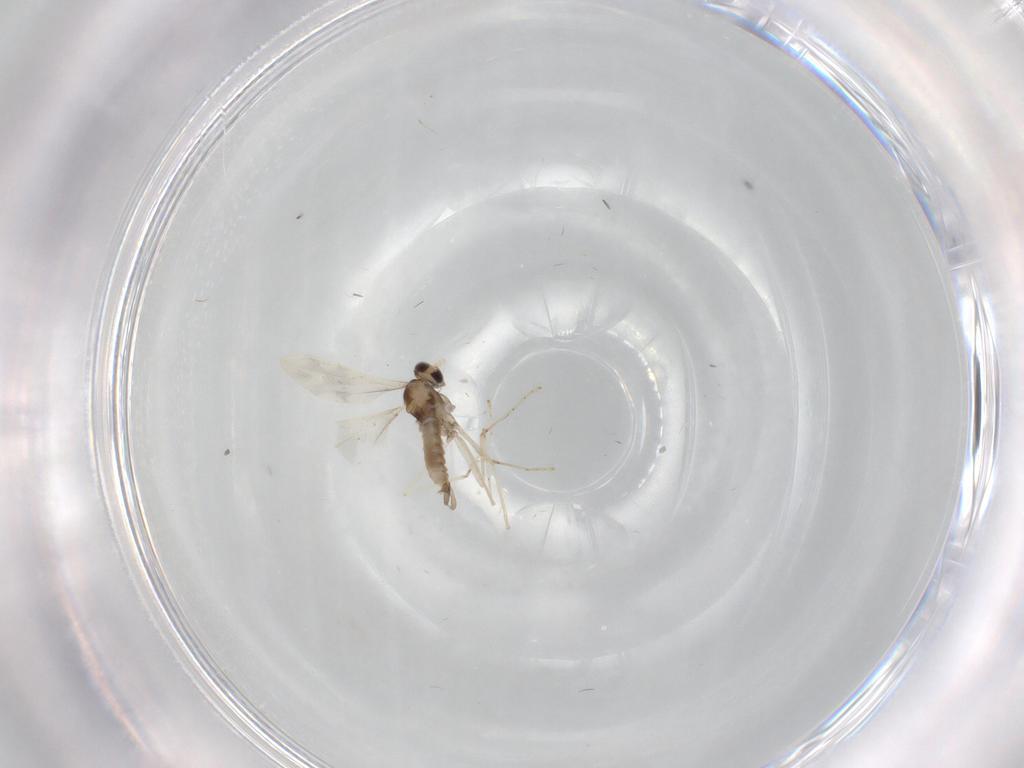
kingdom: Animalia
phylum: Arthropoda
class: Insecta
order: Diptera
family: Cecidomyiidae
